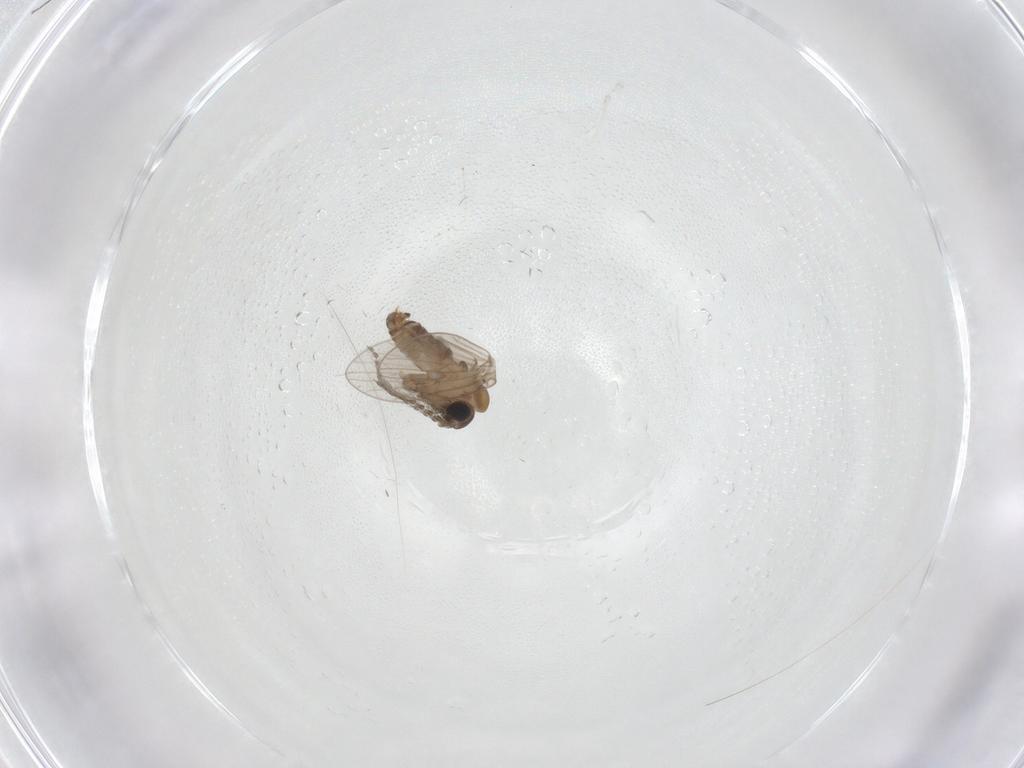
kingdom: Animalia
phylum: Arthropoda
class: Insecta
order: Diptera
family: Cecidomyiidae
